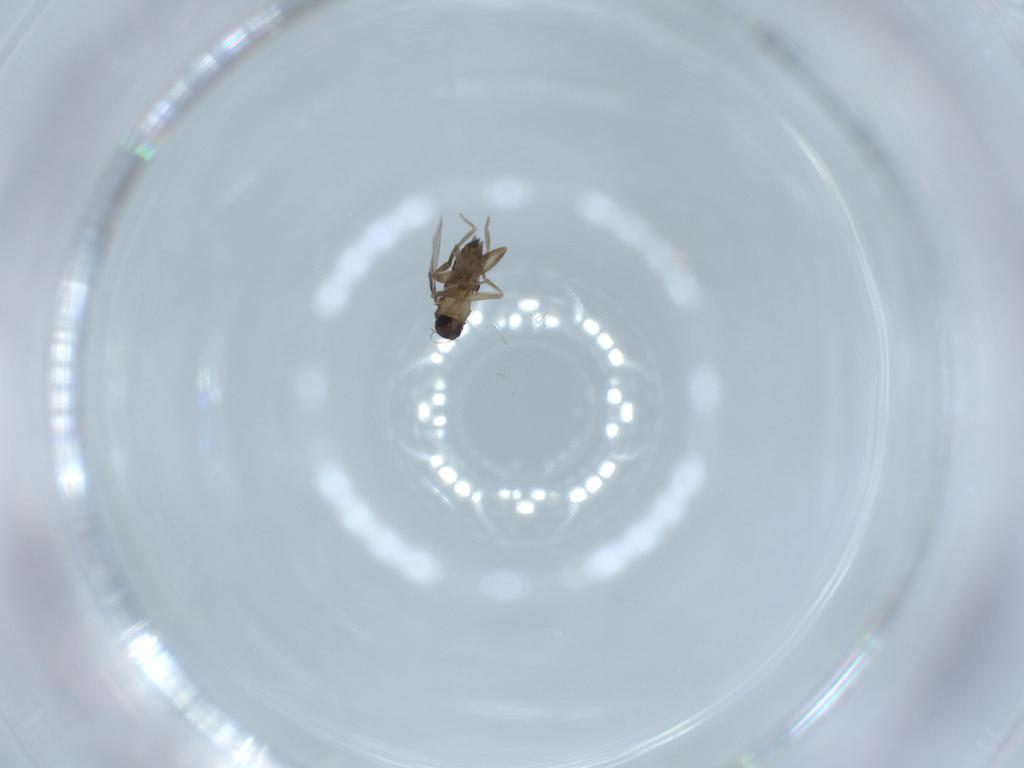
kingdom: Animalia
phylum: Arthropoda
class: Insecta
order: Diptera
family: Phoridae
